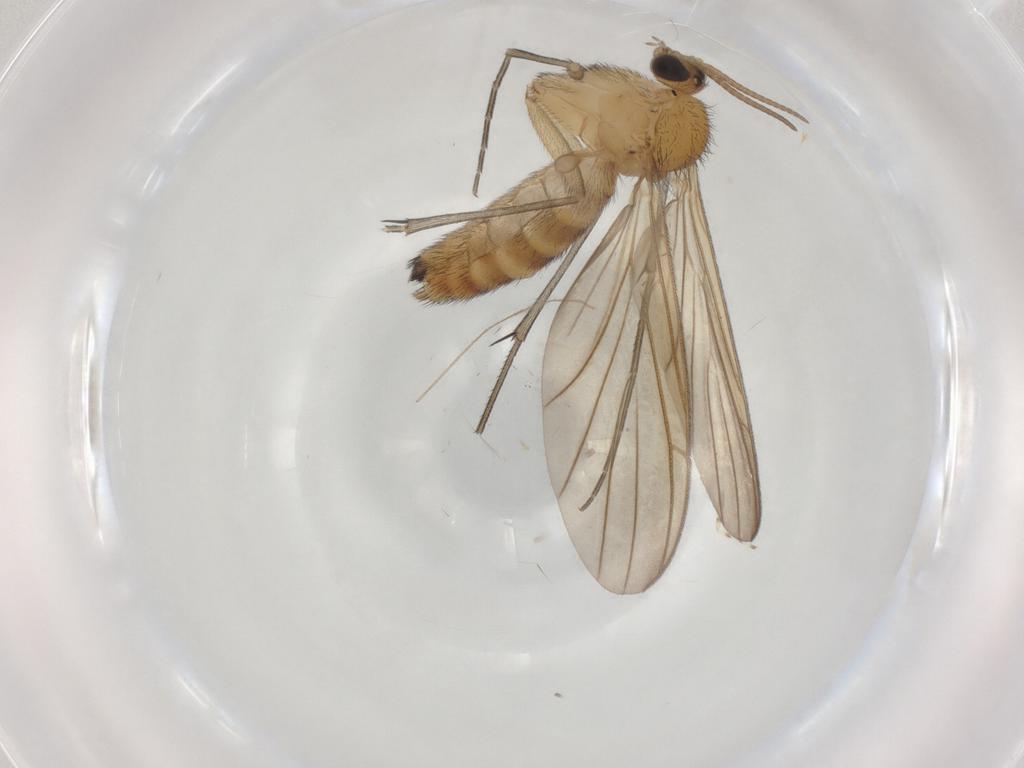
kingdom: Animalia
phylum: Arthropoda
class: Insecta
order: Diptera
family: Keroplatidae
